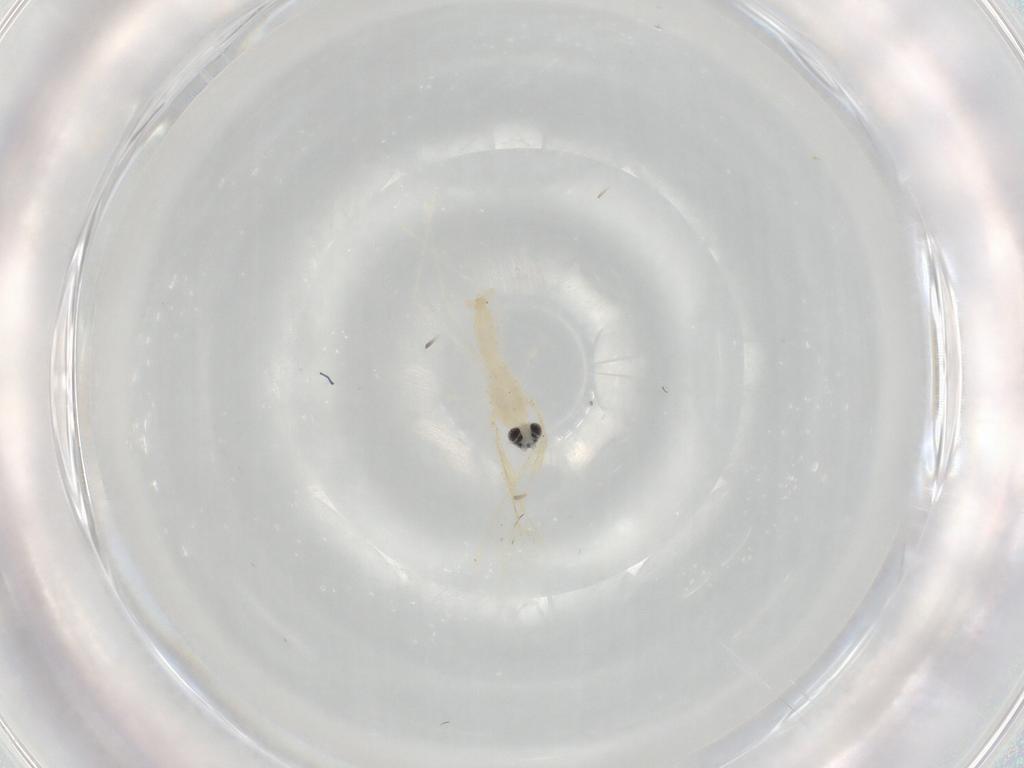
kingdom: Animalia
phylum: Arthropoda
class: Insecta
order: Diptera
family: Cecidomyiidae
